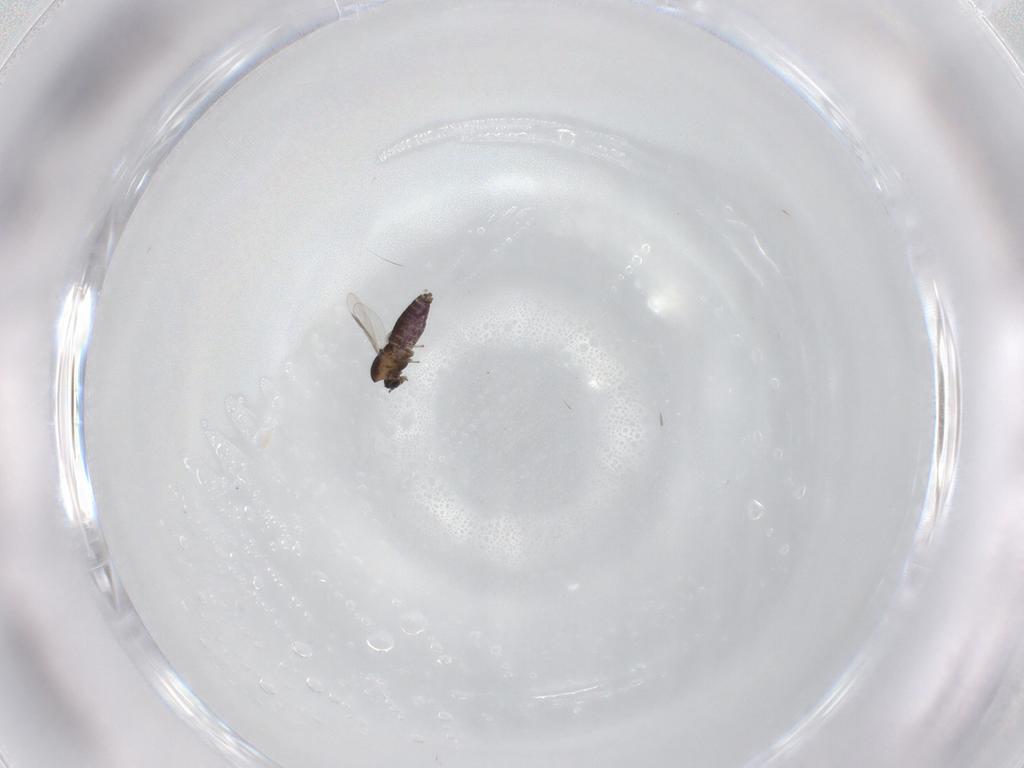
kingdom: Animalia
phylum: Arthropoda
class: Insecta
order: Diptera
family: Chironomidae
